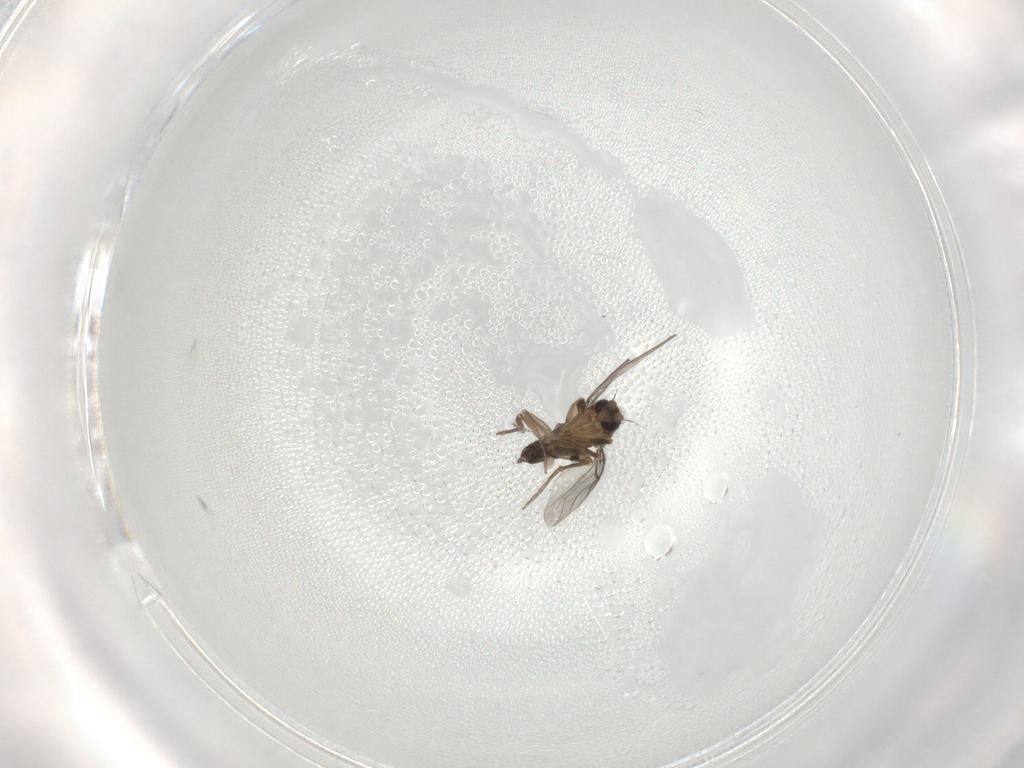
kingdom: Animalia
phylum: Arthropoda
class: Insecta
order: Diptera
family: Phoridae
